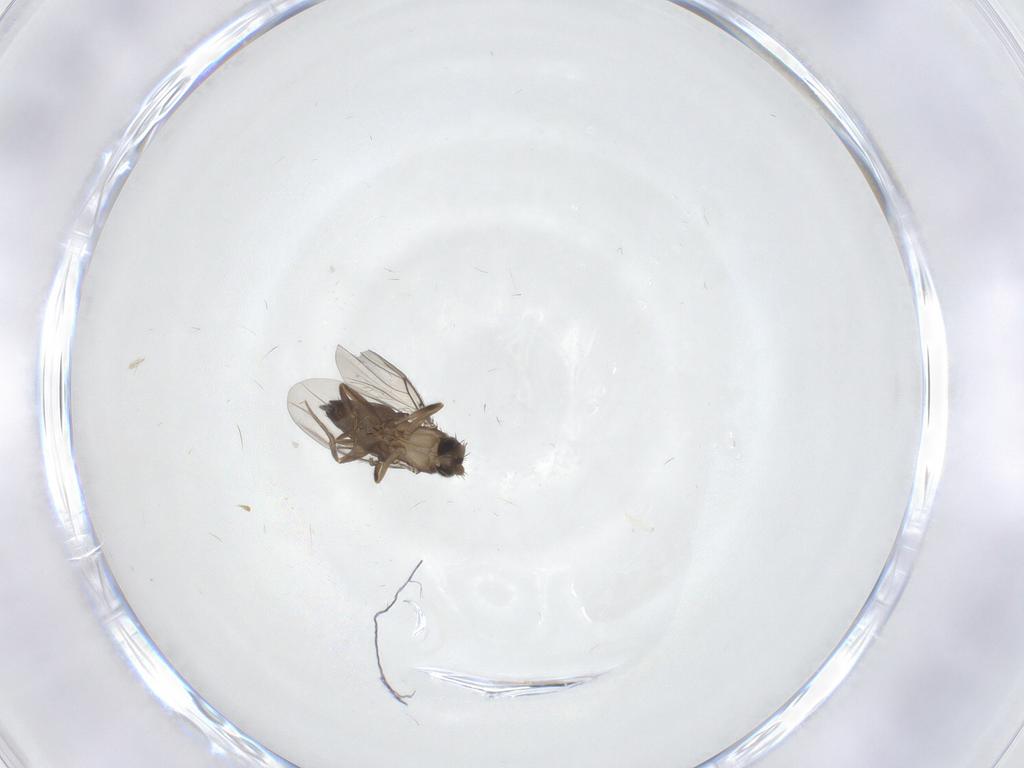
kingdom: Animalia
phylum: Arthropoda
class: Insecta
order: Diptera
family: Phoridae
